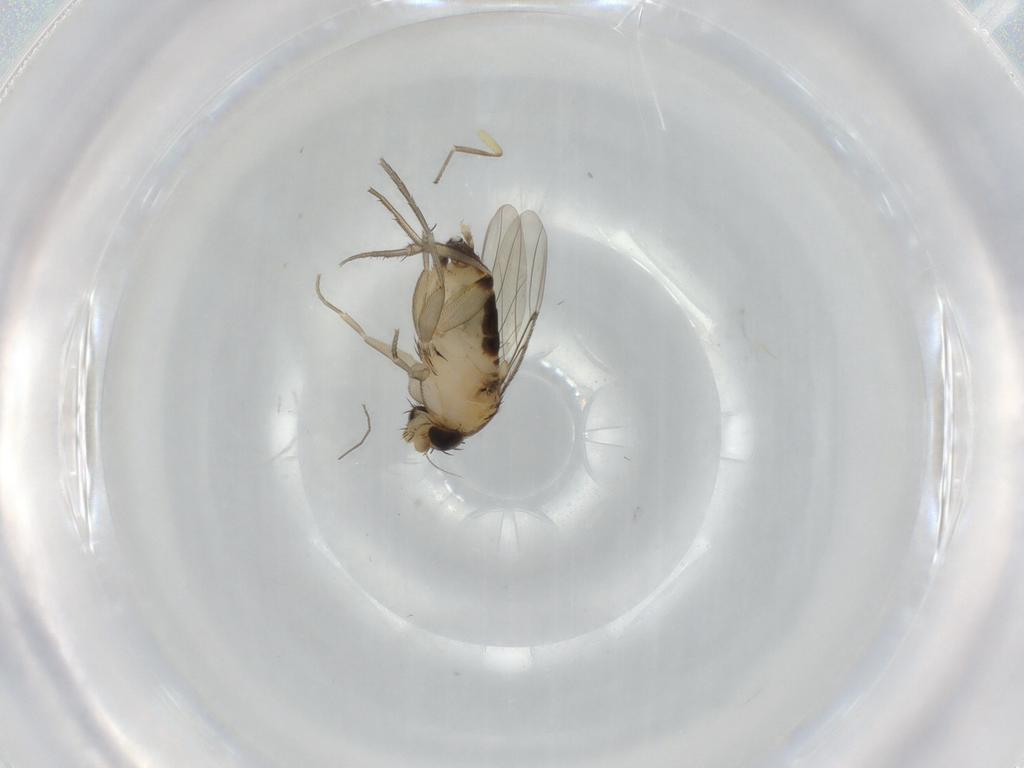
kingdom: Animalia
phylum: Arthropoda
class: Insecta
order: Diptera
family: Phoridae
